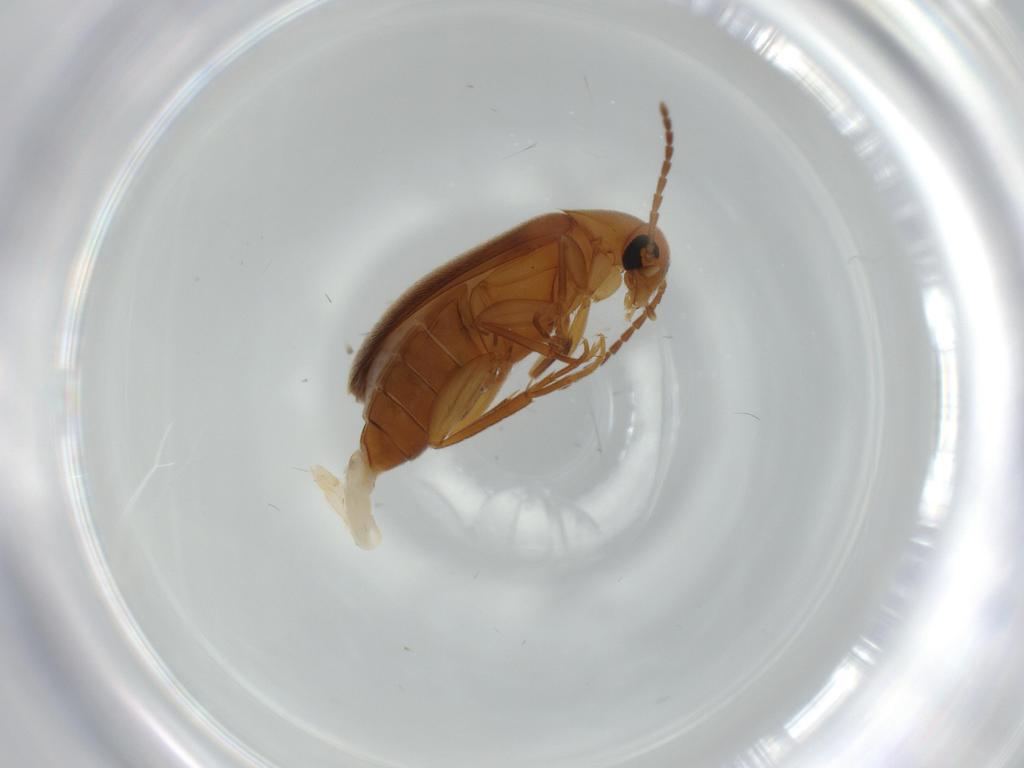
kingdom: Animalia
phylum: Arthropoda
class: Insecta
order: Coleoptera
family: Scraptiidae
